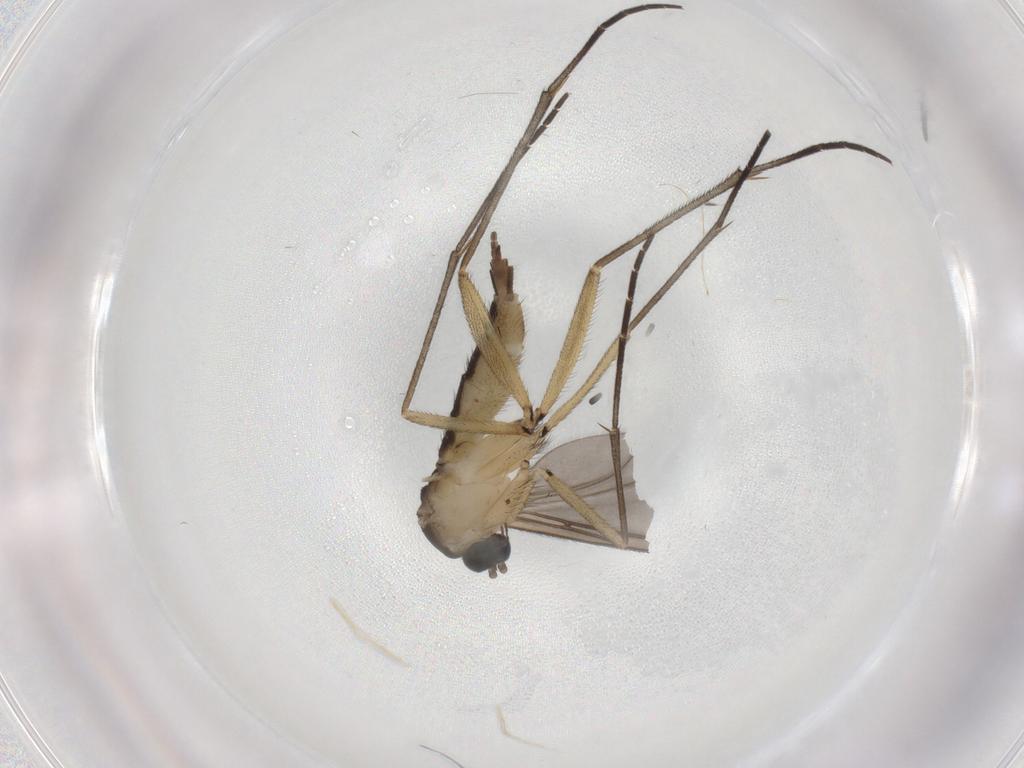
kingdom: Animalia
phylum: Arthropoda
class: Insecta
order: Diptera
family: Sciaridae
